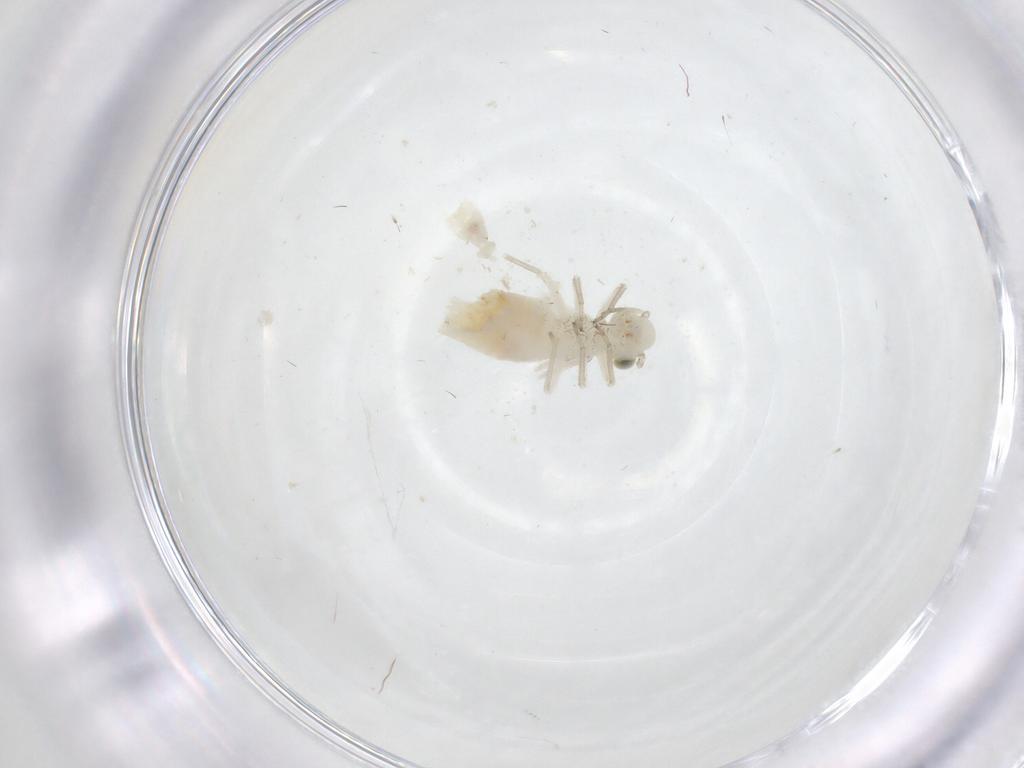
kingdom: Animalia
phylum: Arthropoda
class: Insecta
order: Psocodea
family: Caeciliusidae
